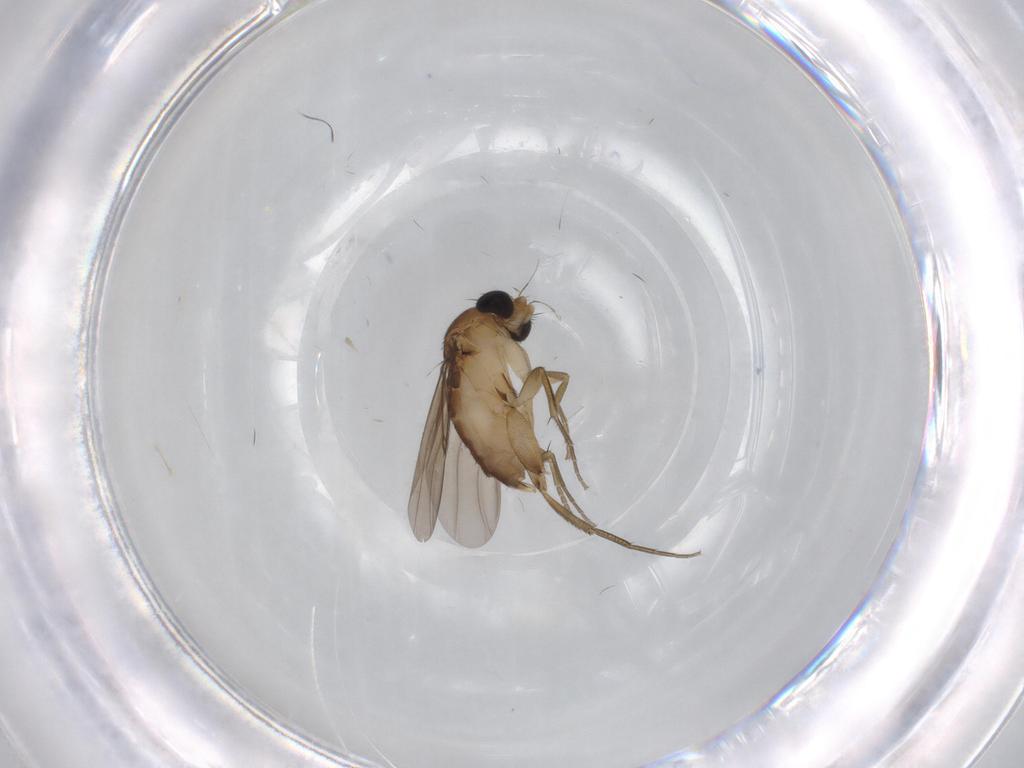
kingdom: Animalia
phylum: Arthropoda
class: Insecta
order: Diptera
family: Phoridae
